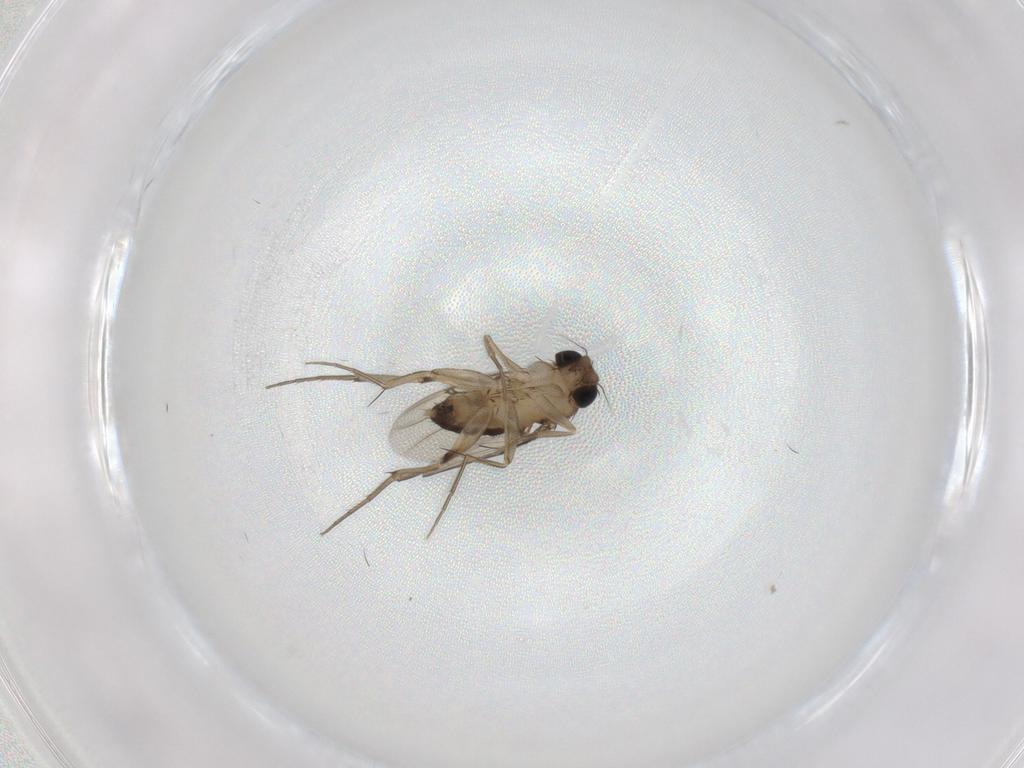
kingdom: Animalia
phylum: Arthropoda
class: Insecta
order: Diptera
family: Phoridae
